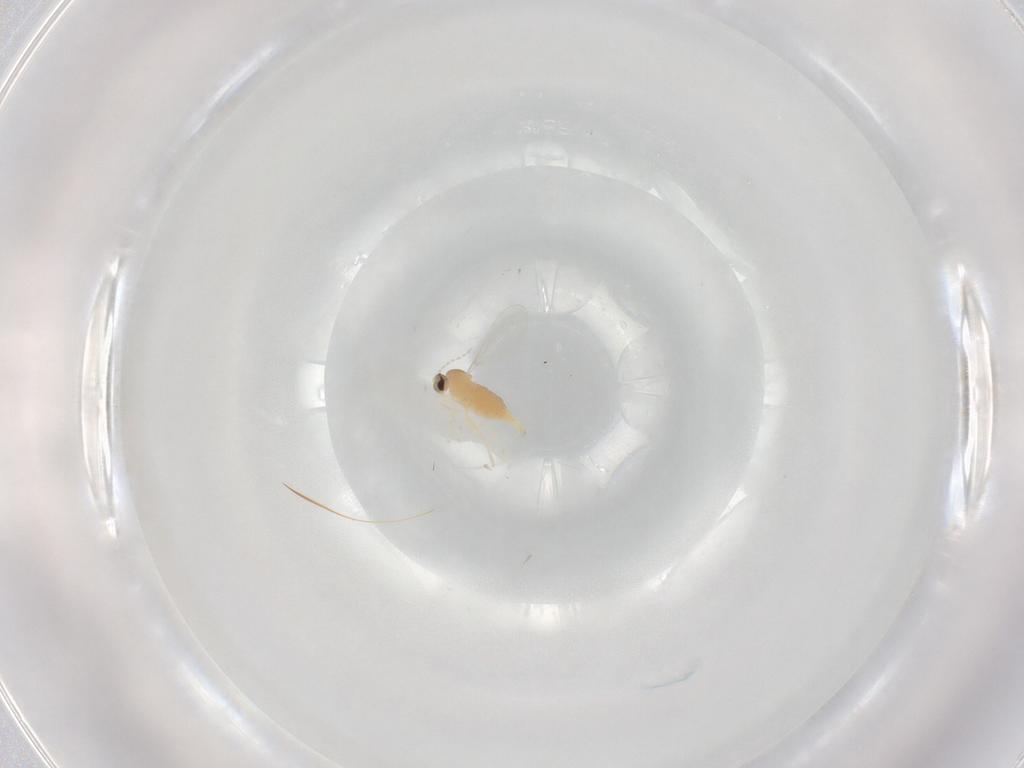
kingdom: Animalia
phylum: Arthropoda
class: Insecta
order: Diptera
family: Cecidomyiidae
